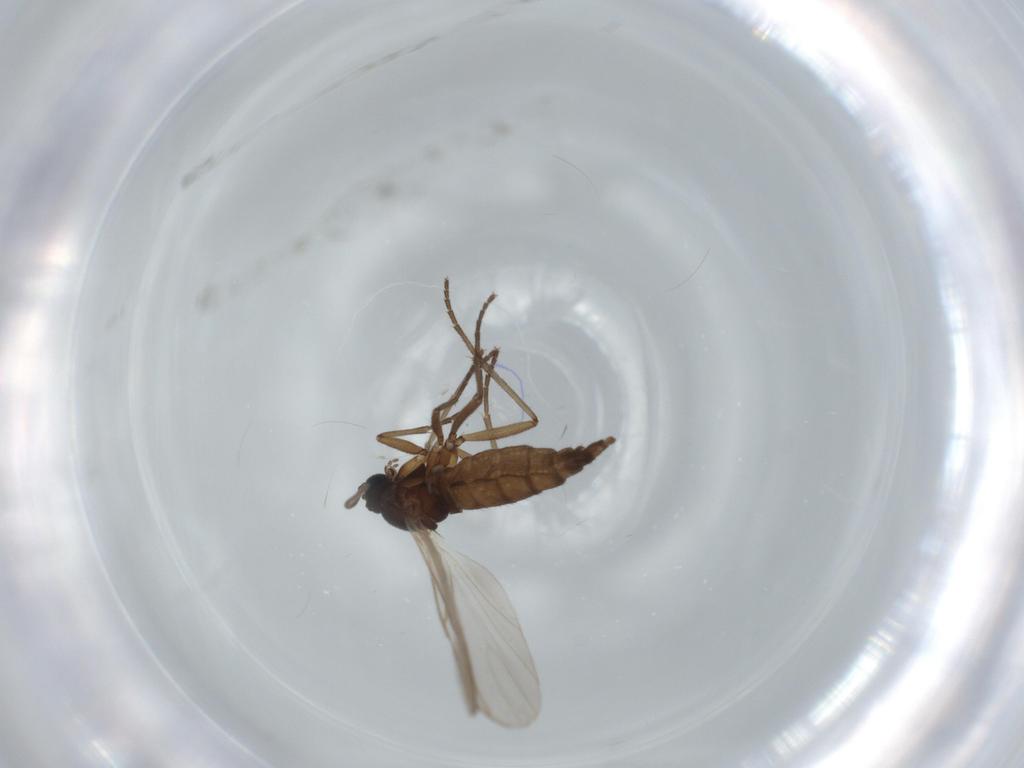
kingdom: Animalia
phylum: Arthropoda
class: Insecta
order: Diptera
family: Sciaridae
